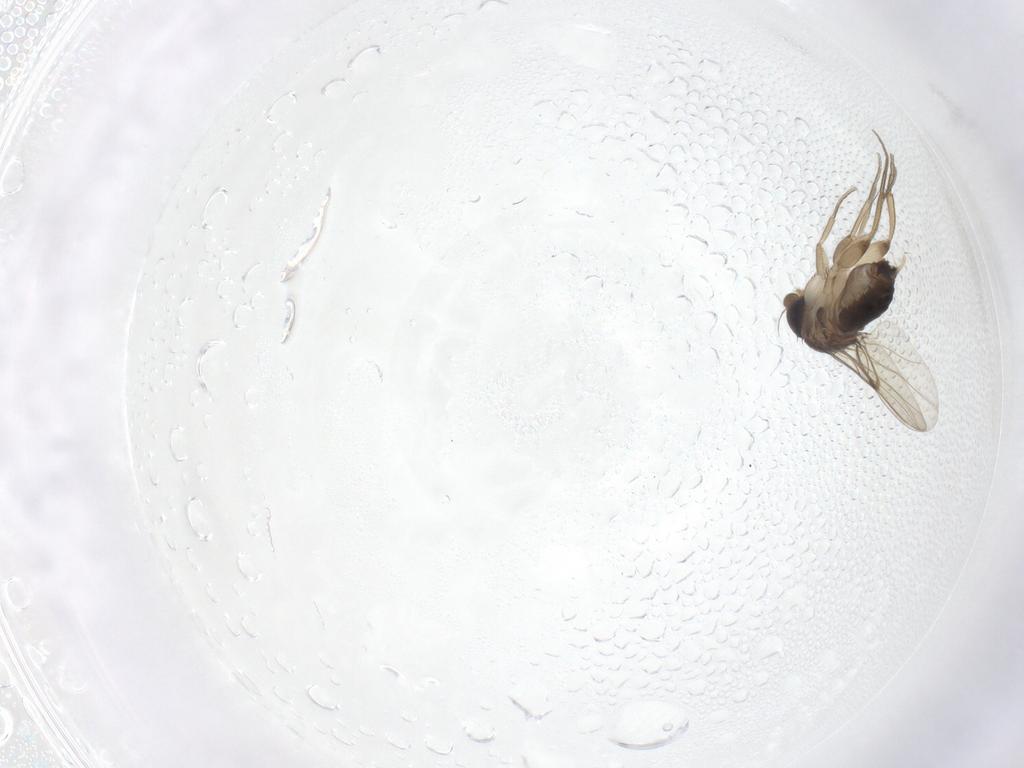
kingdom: Animalia
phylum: Arthropoda
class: Insecta
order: Diptera
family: Phoridae
